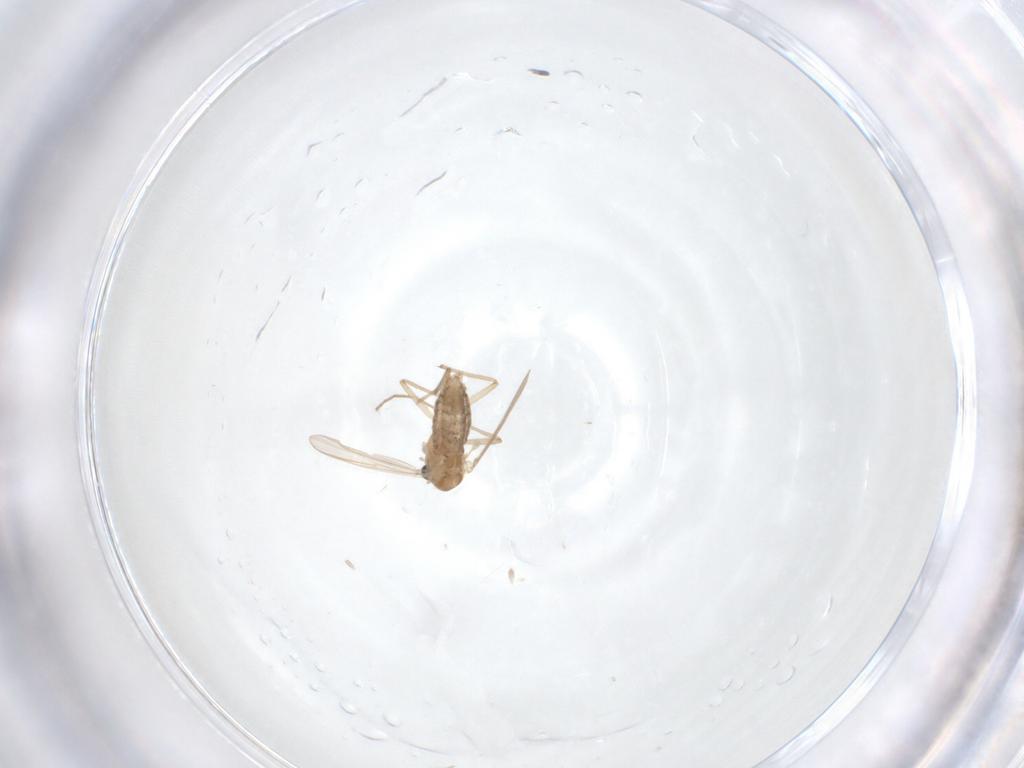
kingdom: Animalia
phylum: Arthropoda
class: Insecta
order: Diptera
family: Chironomidae
